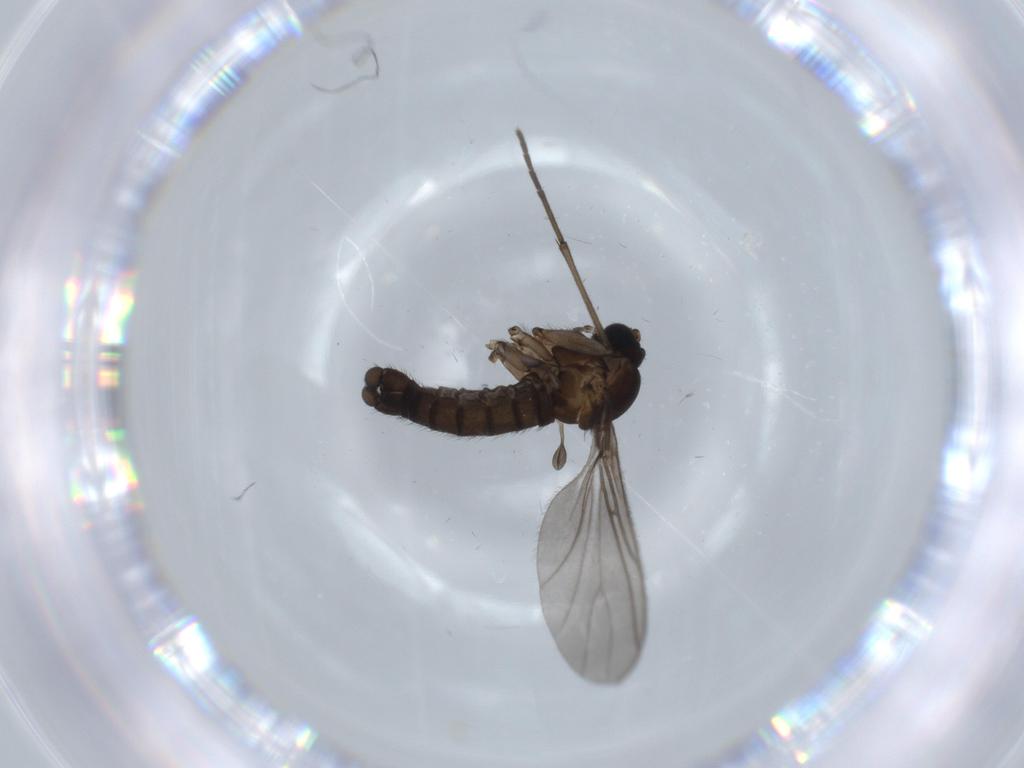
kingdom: Animalia
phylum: Arthropoda
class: Insecta
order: Diptera
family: Sciaridae
